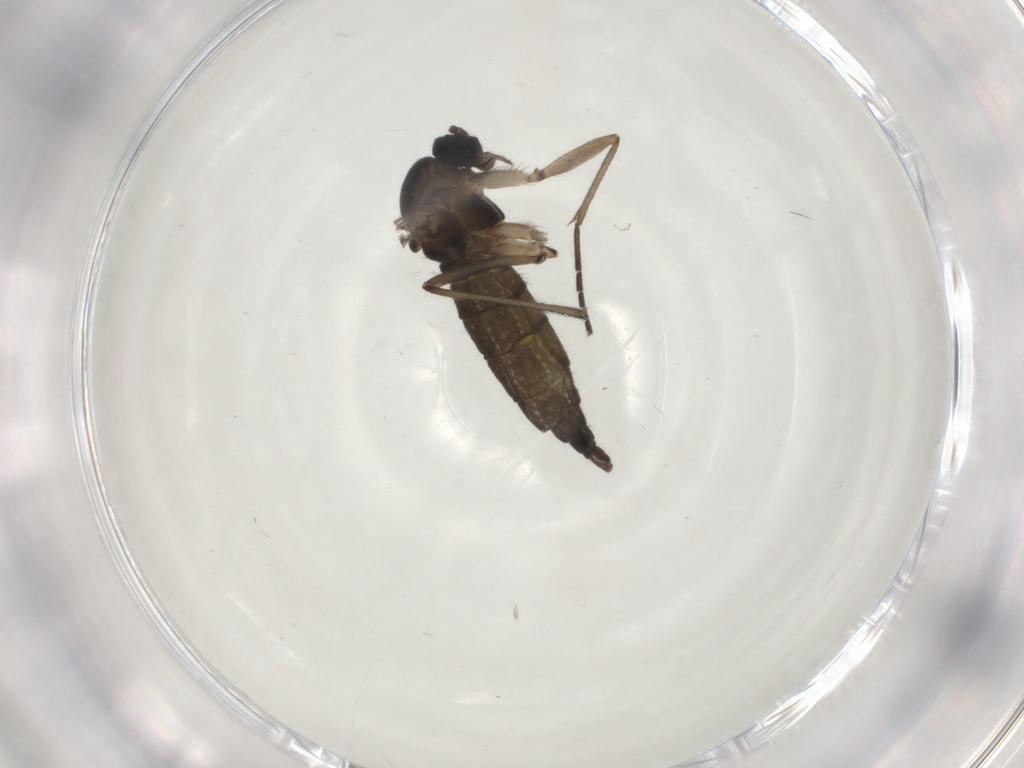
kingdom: Animalia
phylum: Arthropoda
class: Insecta
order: Diptera
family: Sciaridae
